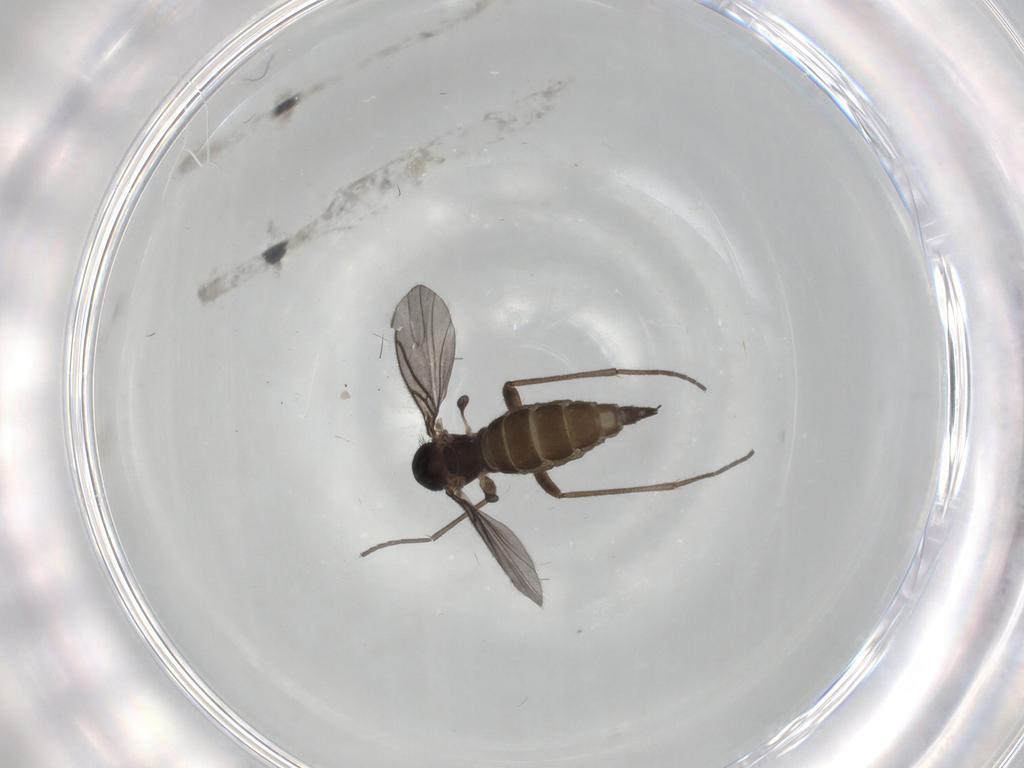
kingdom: Animalia
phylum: Arthropoda
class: Insecta
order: Diptera
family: Sciaridae
